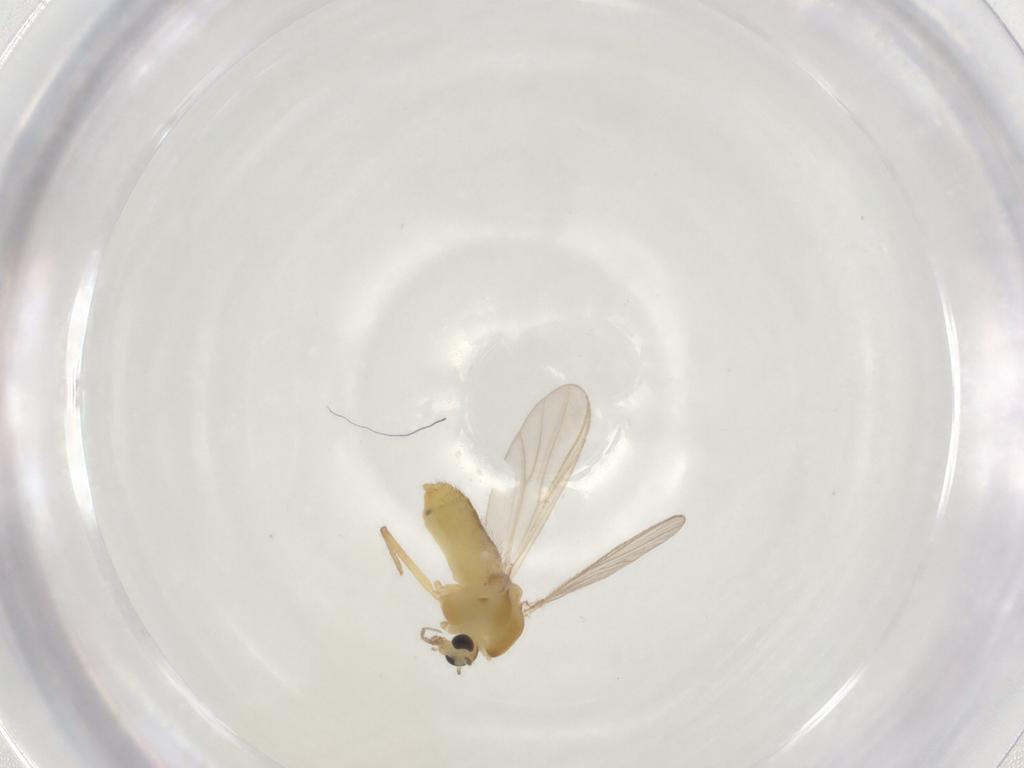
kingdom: Animalia
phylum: Arthropoda
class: Insecta
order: Diptera
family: Chironomidae
